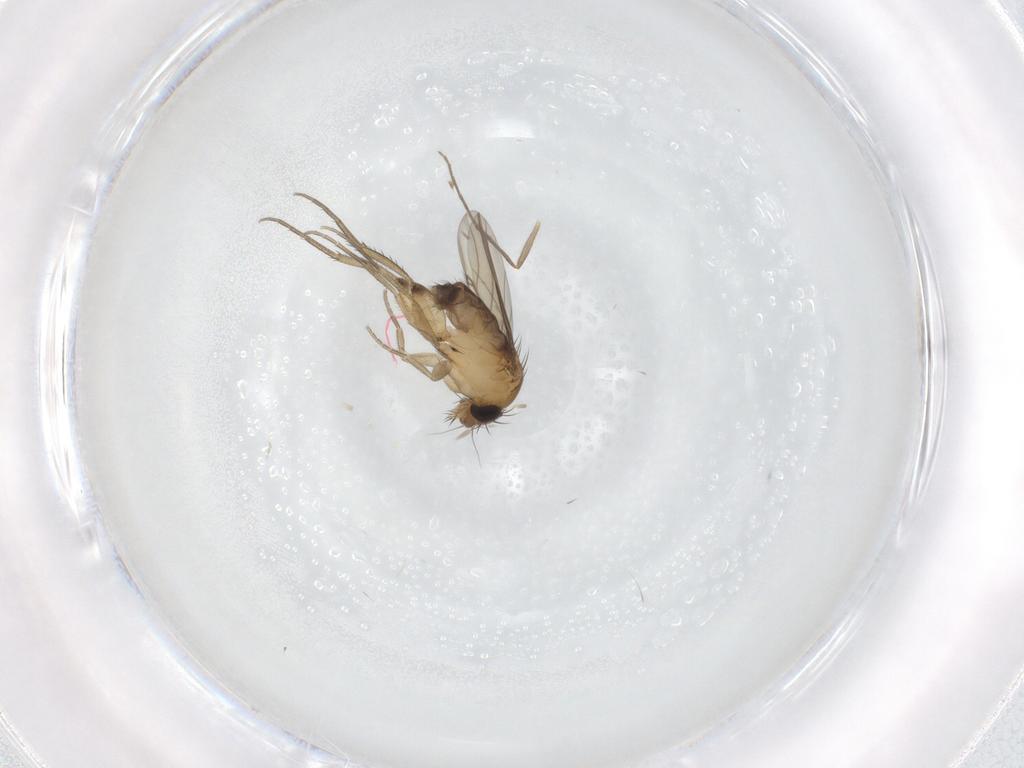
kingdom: Animalia
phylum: Arthropoda
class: Insecta
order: Diptera
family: Phoridae
